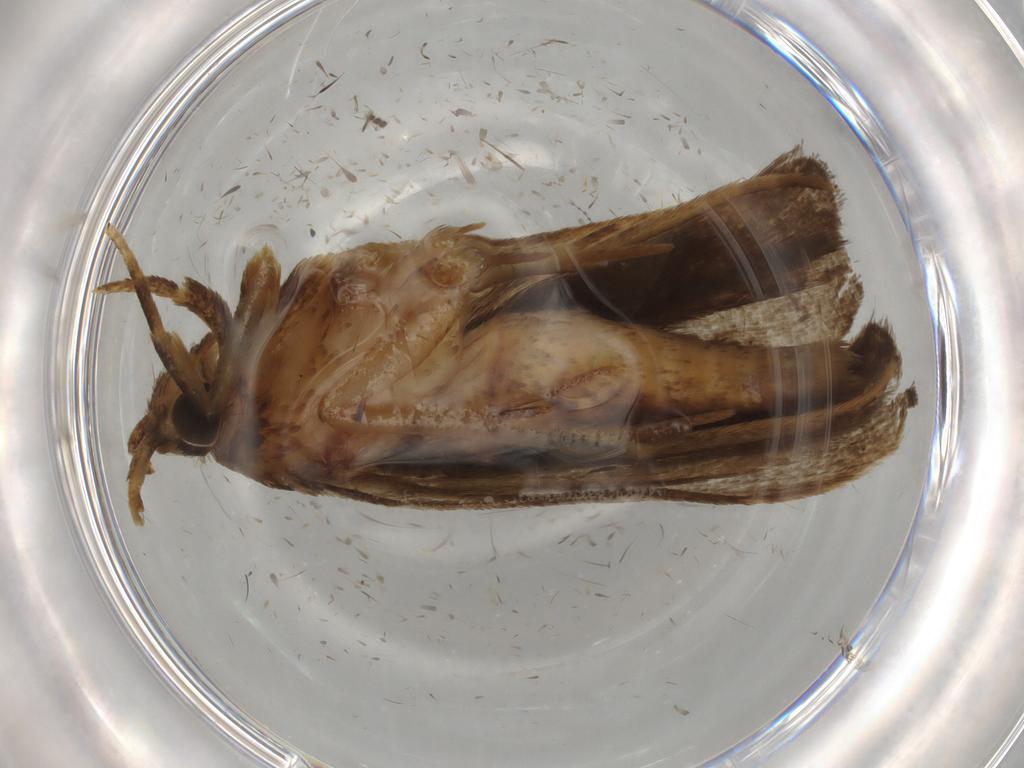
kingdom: Animalia
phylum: Arthropoda
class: Insecta
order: Lepidoptera
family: Autostichidae
